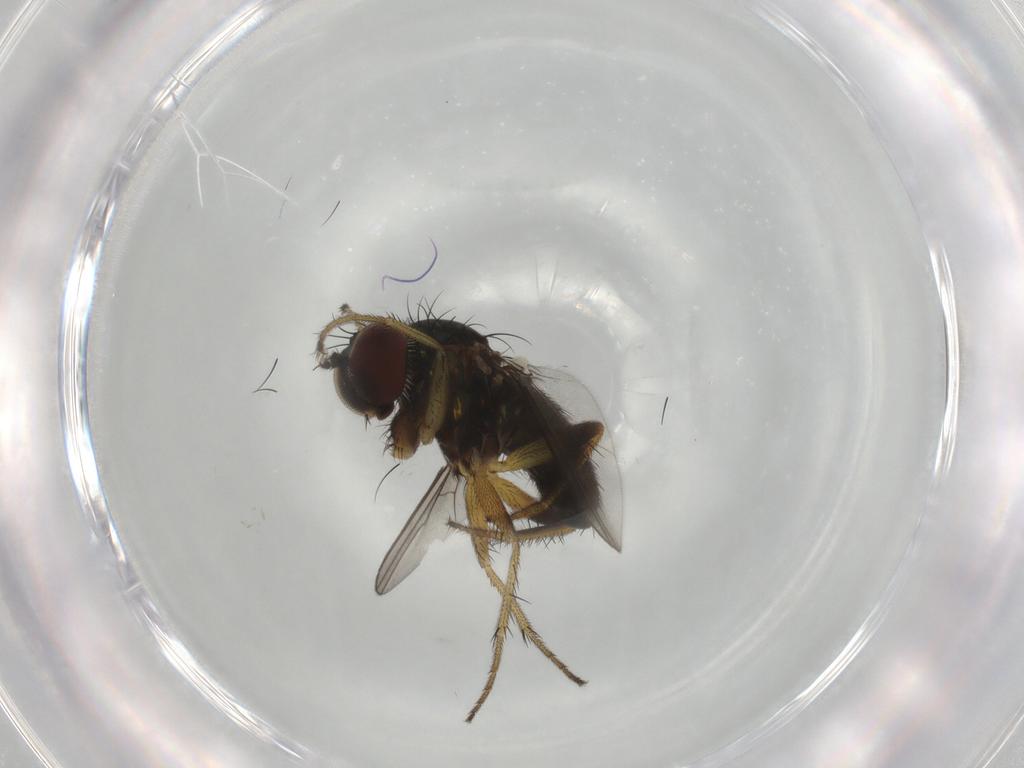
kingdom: Animalia
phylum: Arthropoda
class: Insecta
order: Diptera
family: Dolichopodidae
